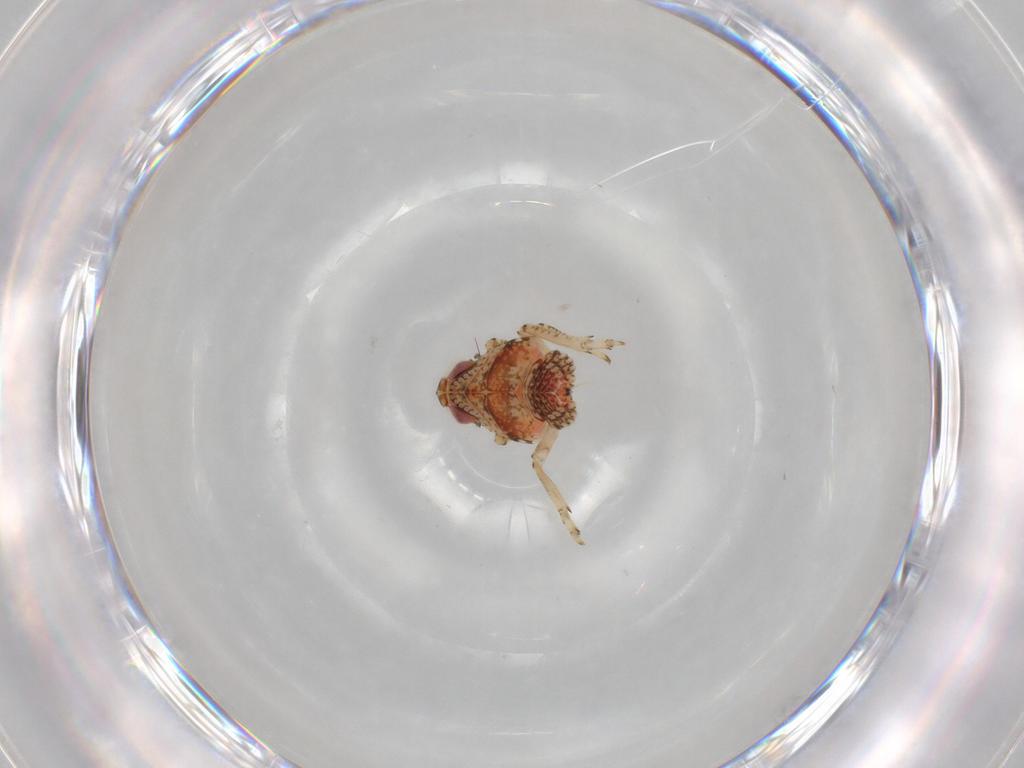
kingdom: Animalia
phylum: Arthropoda
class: Insecta
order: Hemiptera
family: Issidae
